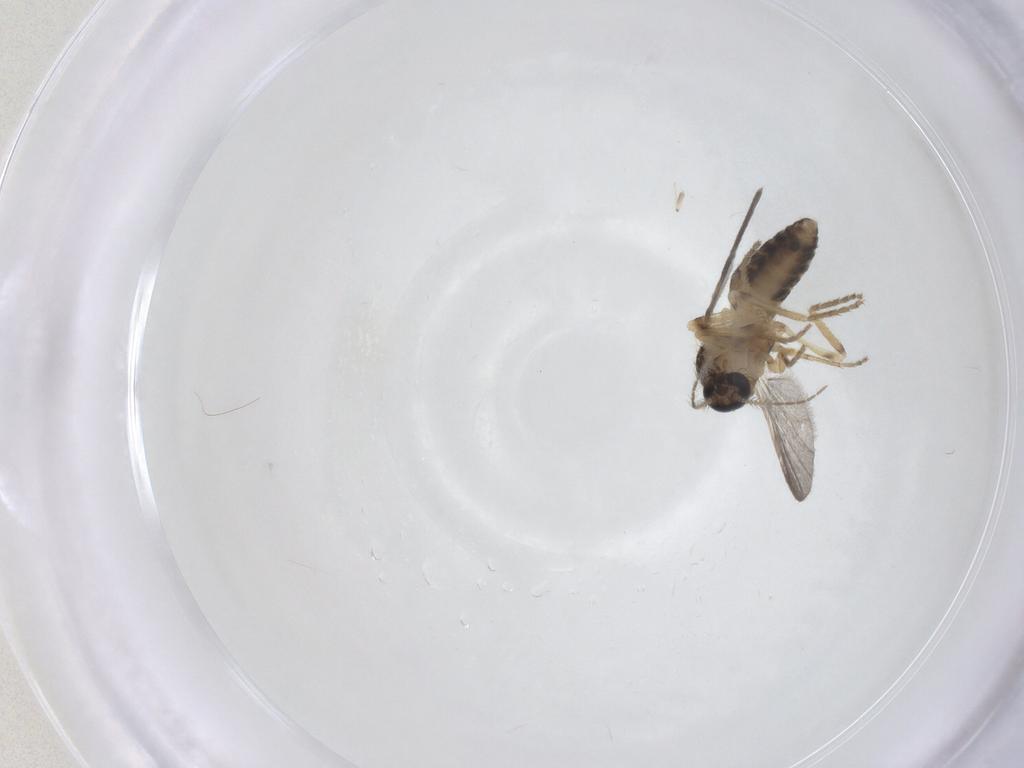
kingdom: Animalia
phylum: Arthropoda
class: Insecta
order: Diptera
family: Ceratopogonidae
